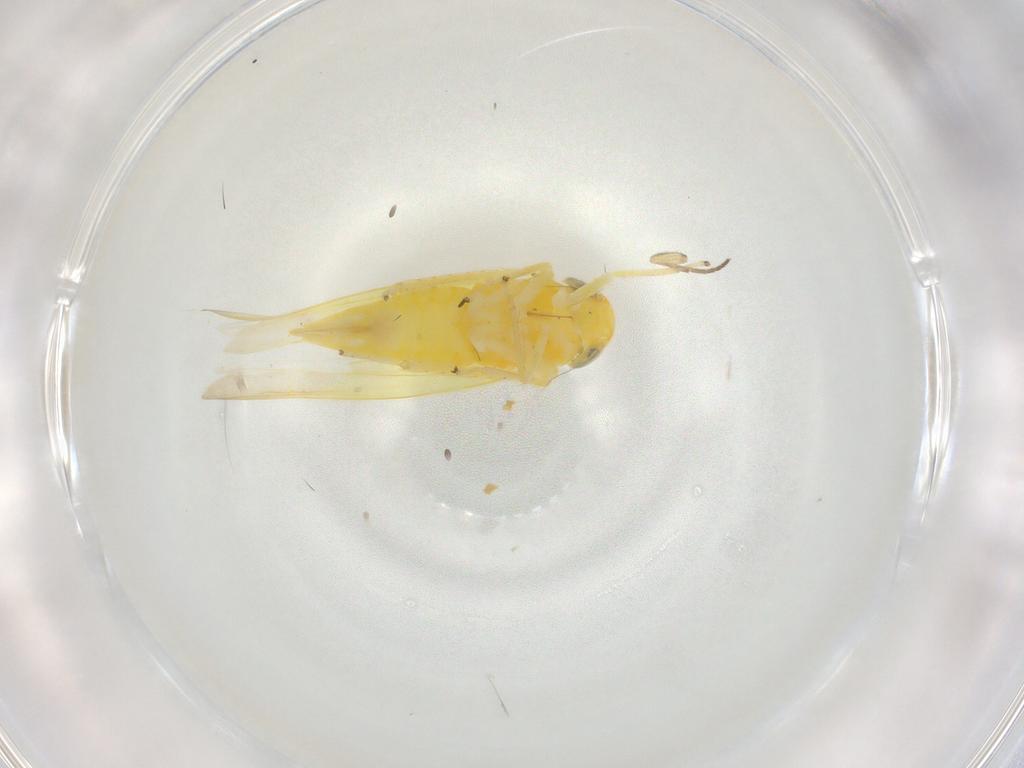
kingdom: Animalia
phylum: Arthropoda
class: Insecta
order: Hemiptera
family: Cicadellidae
